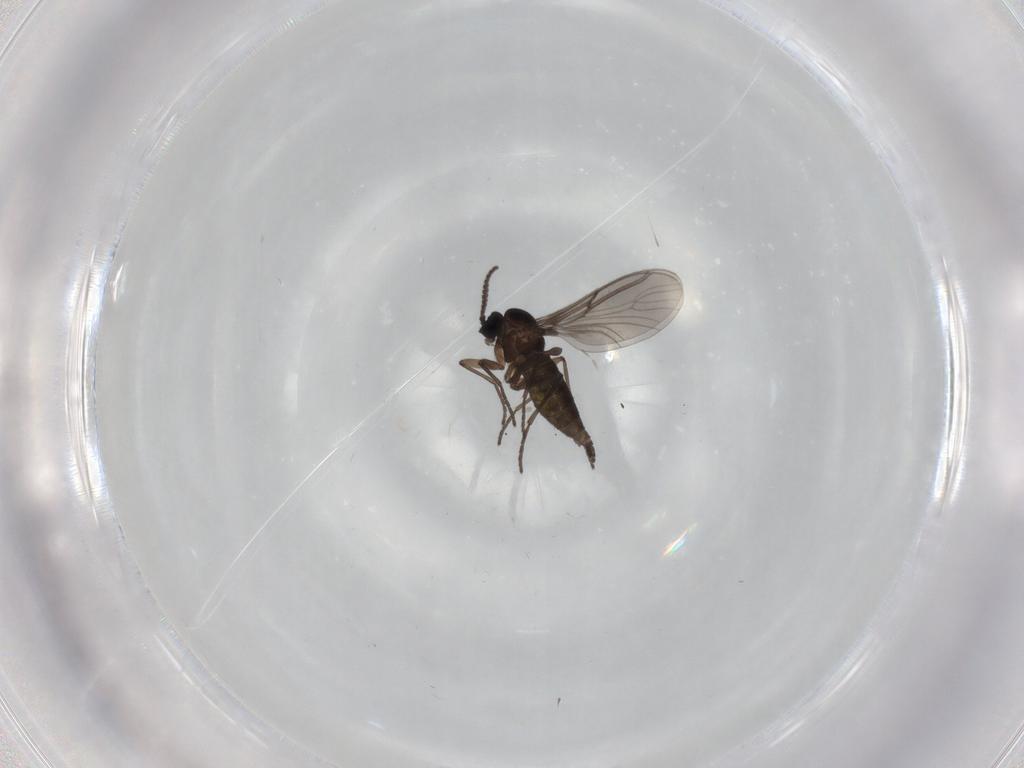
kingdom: Animalia
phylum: Arthropoda
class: Insecta
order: Diptera
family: Sciaridae
